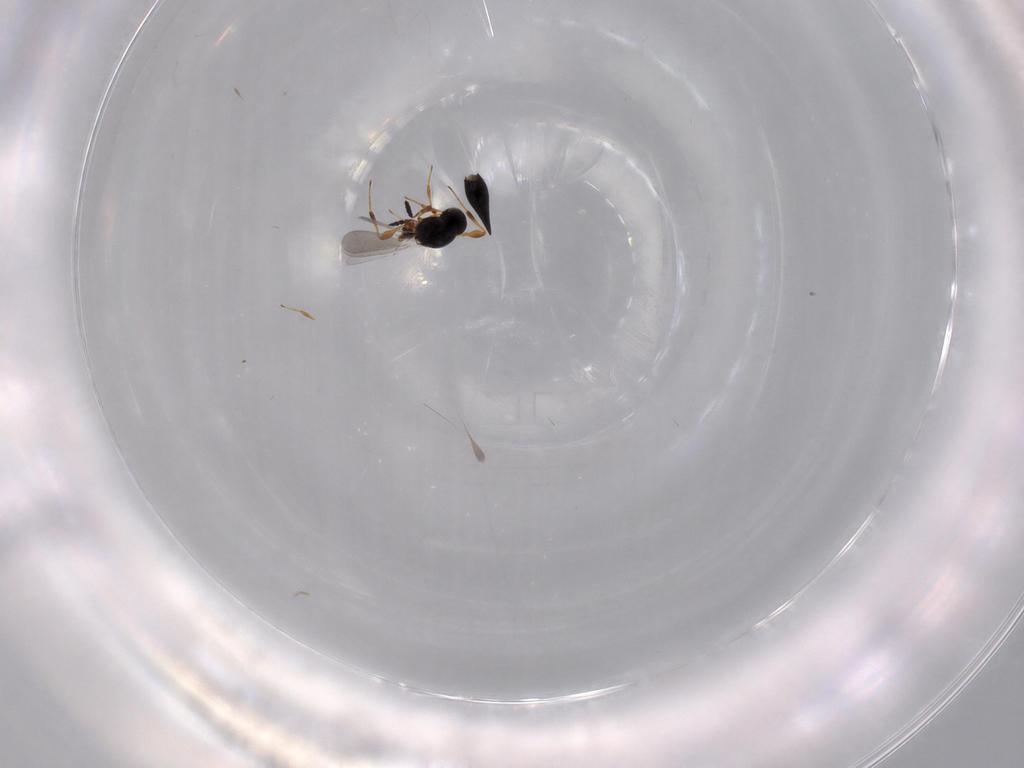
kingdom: Animalia
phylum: Arthropoda
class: Insecta
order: Hymenoptera
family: Platygastridae
